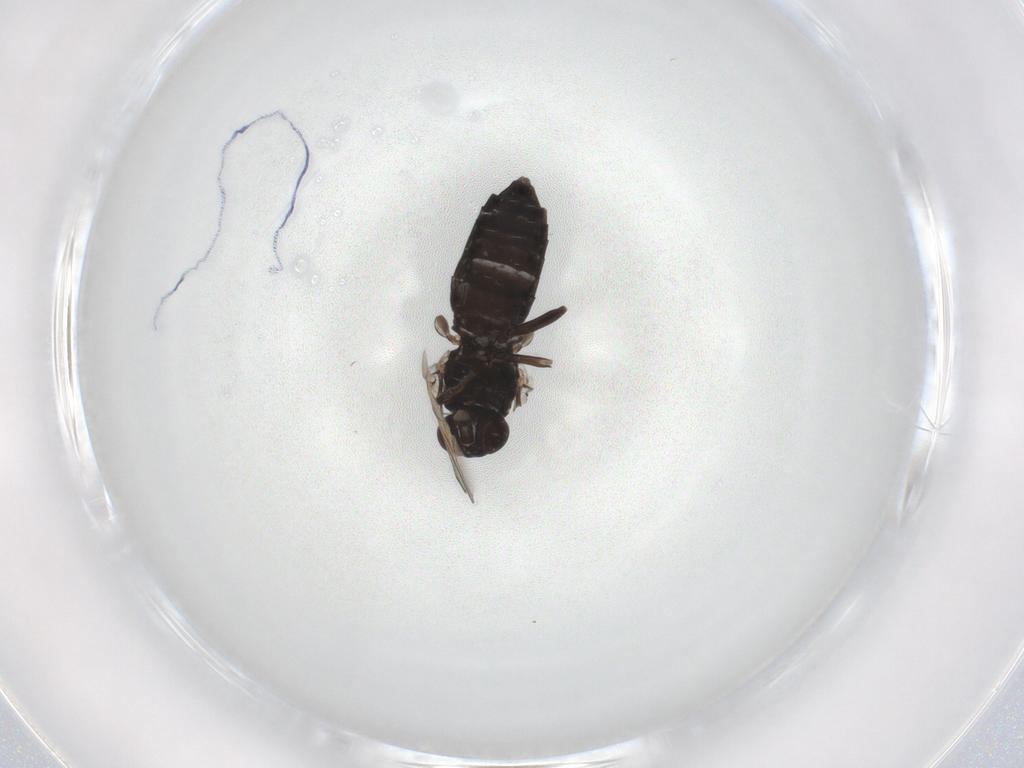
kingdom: Animalia
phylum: Arthropoda
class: Insecta
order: Diptera
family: Scenopinidae
